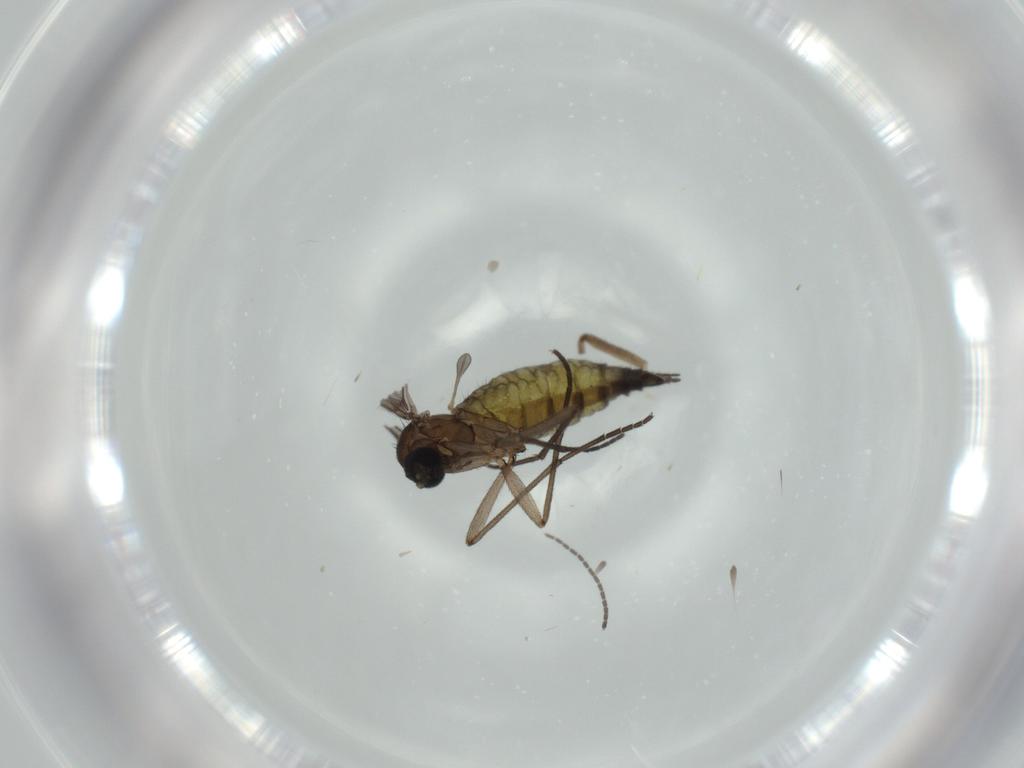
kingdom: Animalia
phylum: Arthropoda
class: Insecta
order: Diptera
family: Sciaridae
